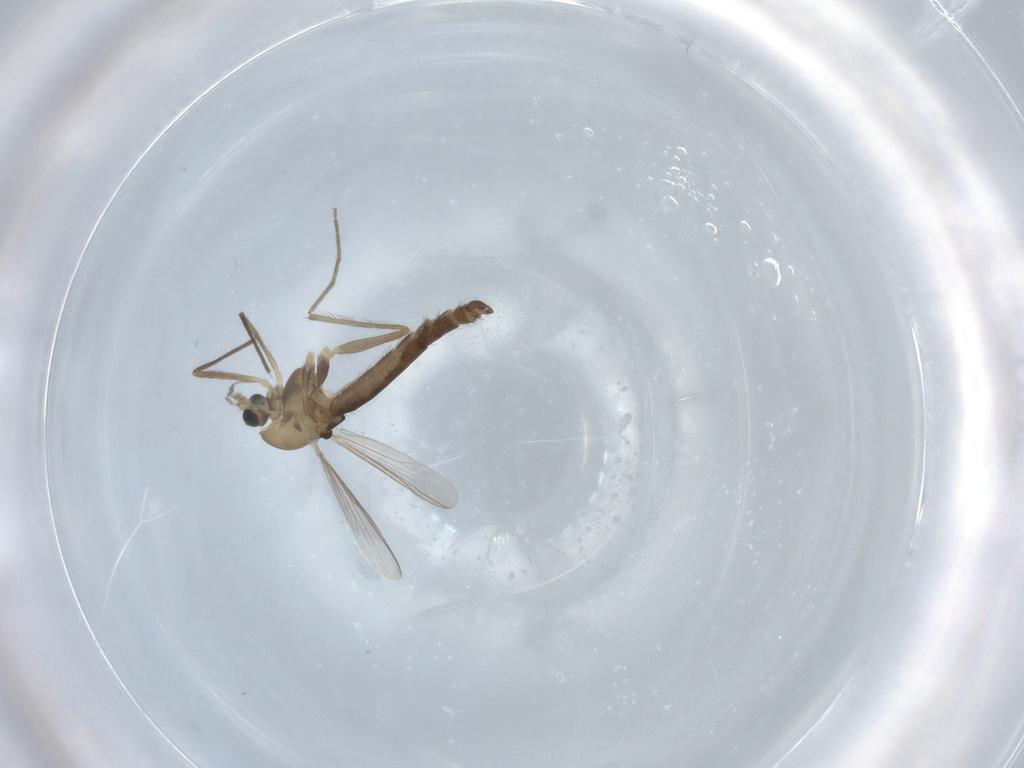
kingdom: Animalia
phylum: Arthropoda
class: Insecta
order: Diptera
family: Chironomidae
